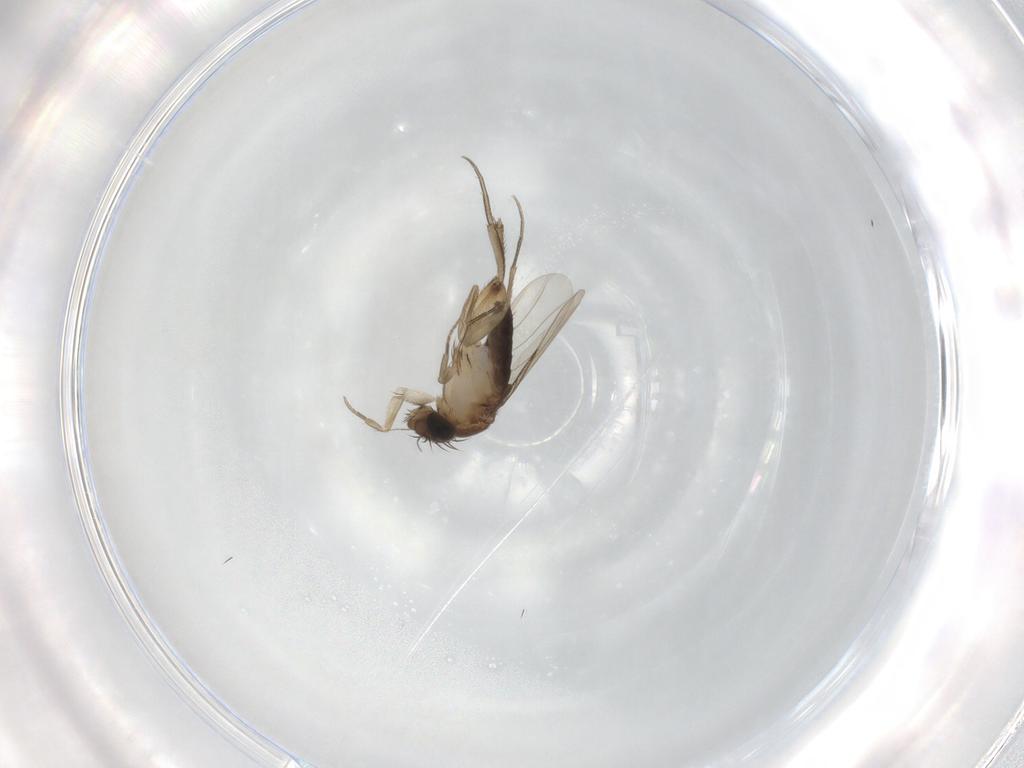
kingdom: Animalia
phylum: Arthropoda
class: Insecta
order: Diptera
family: Phoridae
